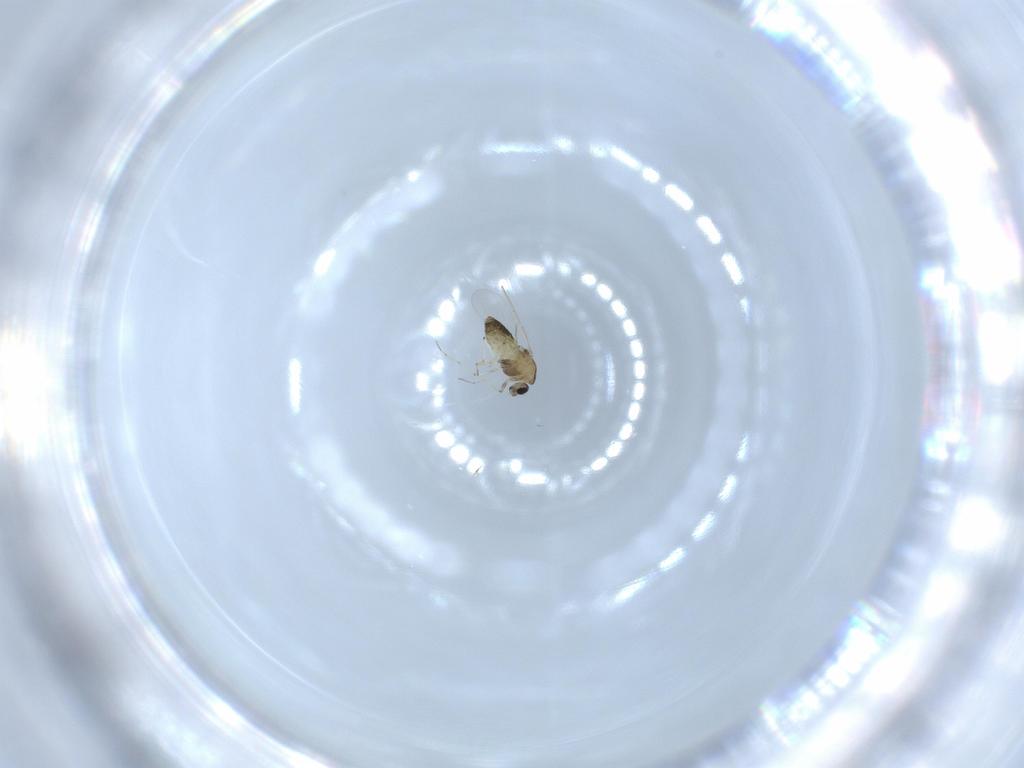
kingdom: Animalia
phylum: Arthropoda
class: Insecta
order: Diptera
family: Chironomidae
